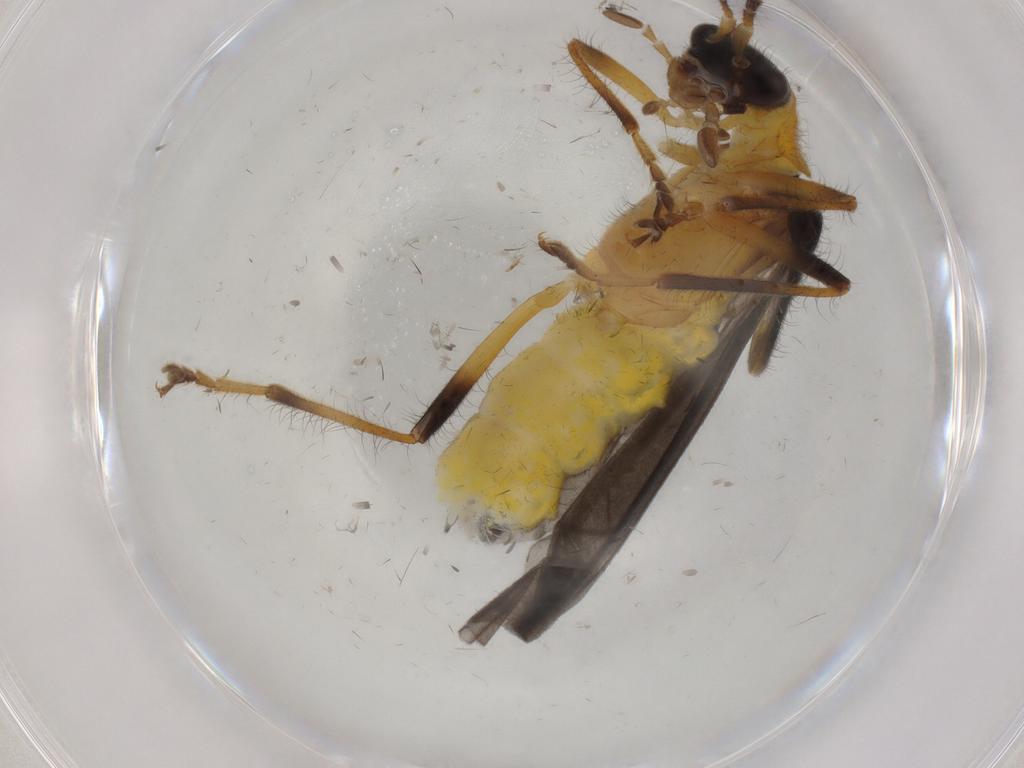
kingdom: Animalia
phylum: Arthropoda
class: Insecta
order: Coleoptera
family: Cantharidae
